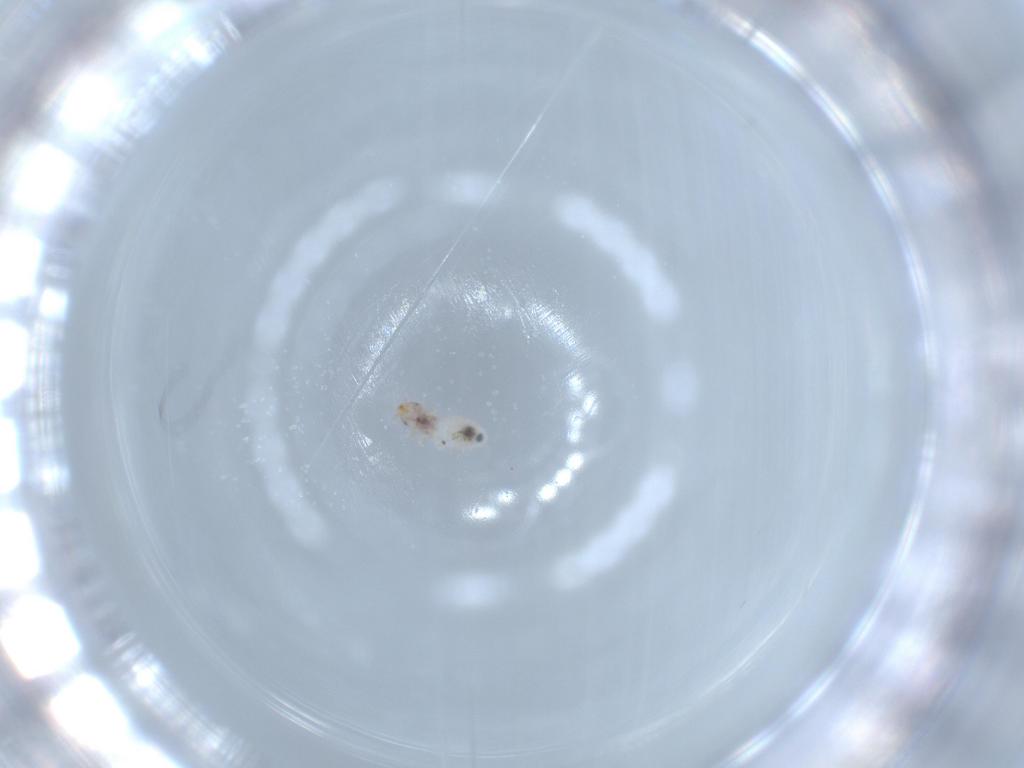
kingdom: Animalia
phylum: Arthropoda
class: Insecta
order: Psocodea
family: Liposcelididae
